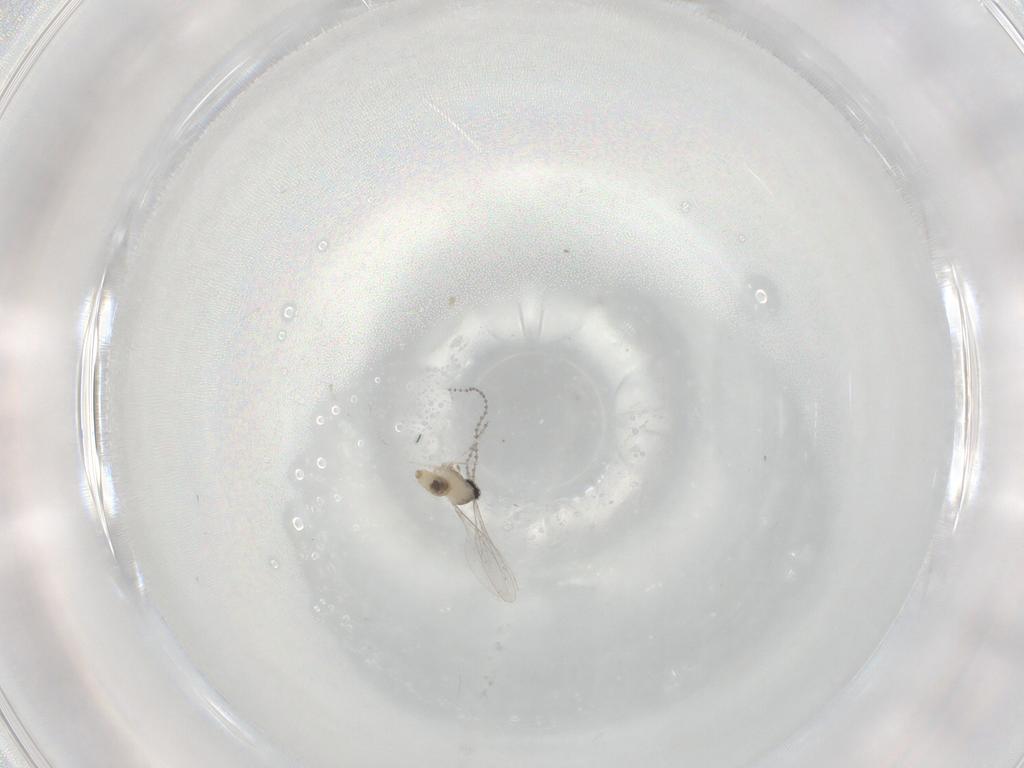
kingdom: Animalia
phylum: Arthropoda
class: Insecta
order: Diptera
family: Cecidomyiidae
